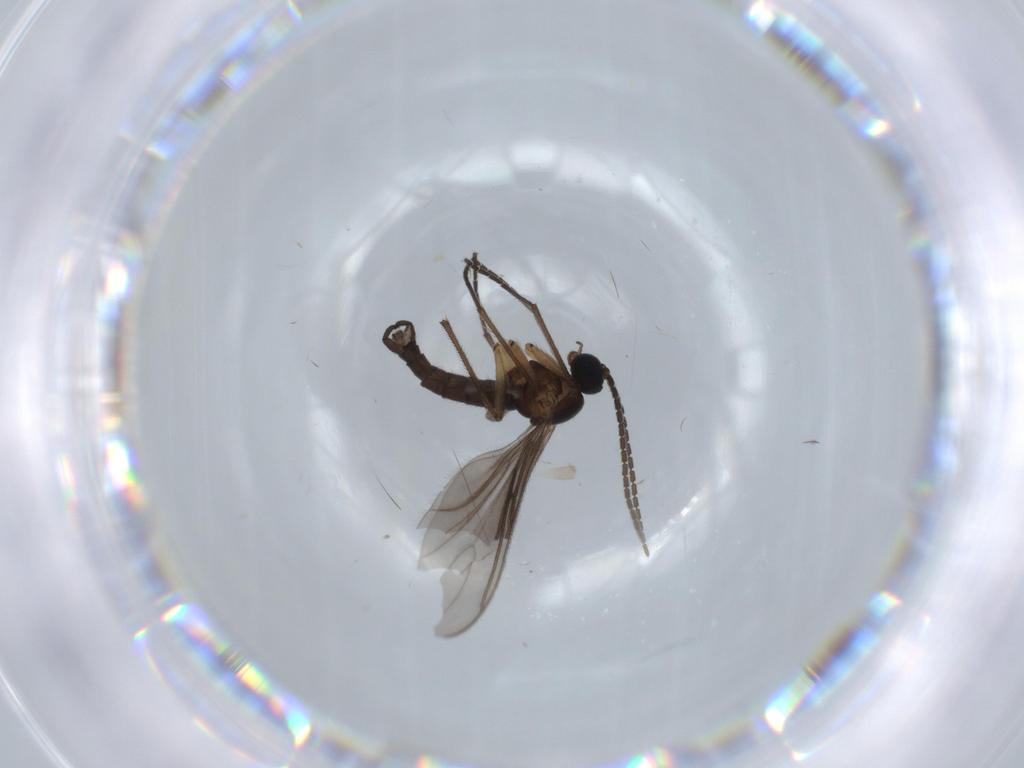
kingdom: Animalia
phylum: Arthropoda
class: Insecta
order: Diptera
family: Sciaridae
